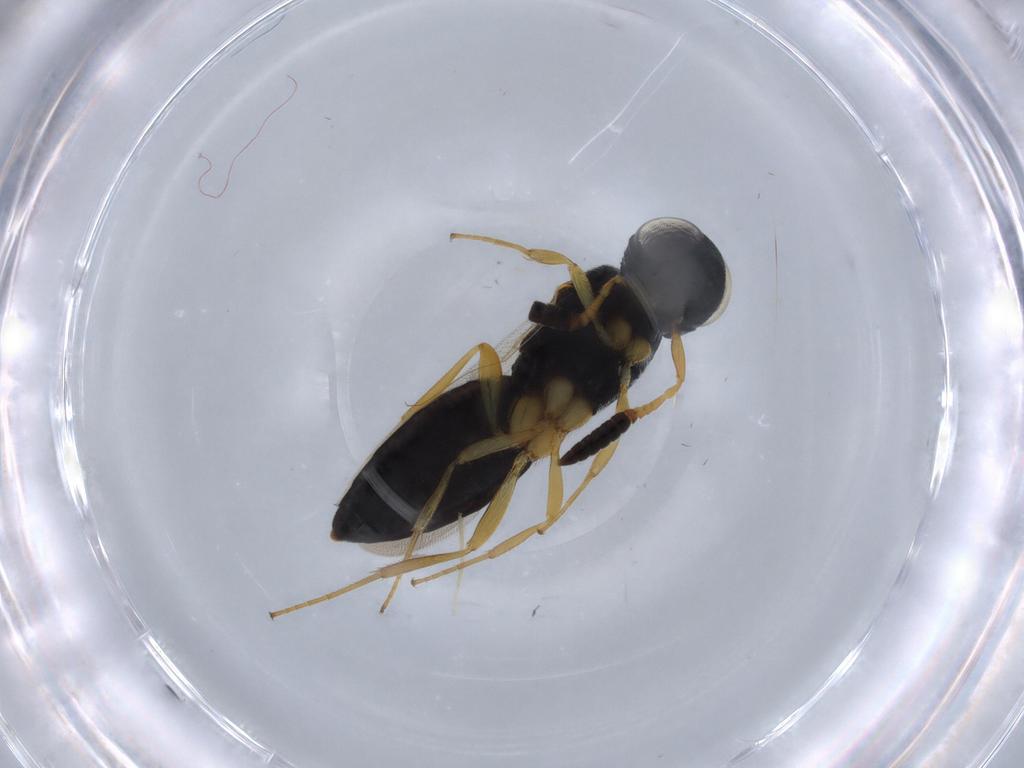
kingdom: Animalia
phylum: Arthropoda
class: Insecta
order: Hymenoptera
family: Scelionidae
